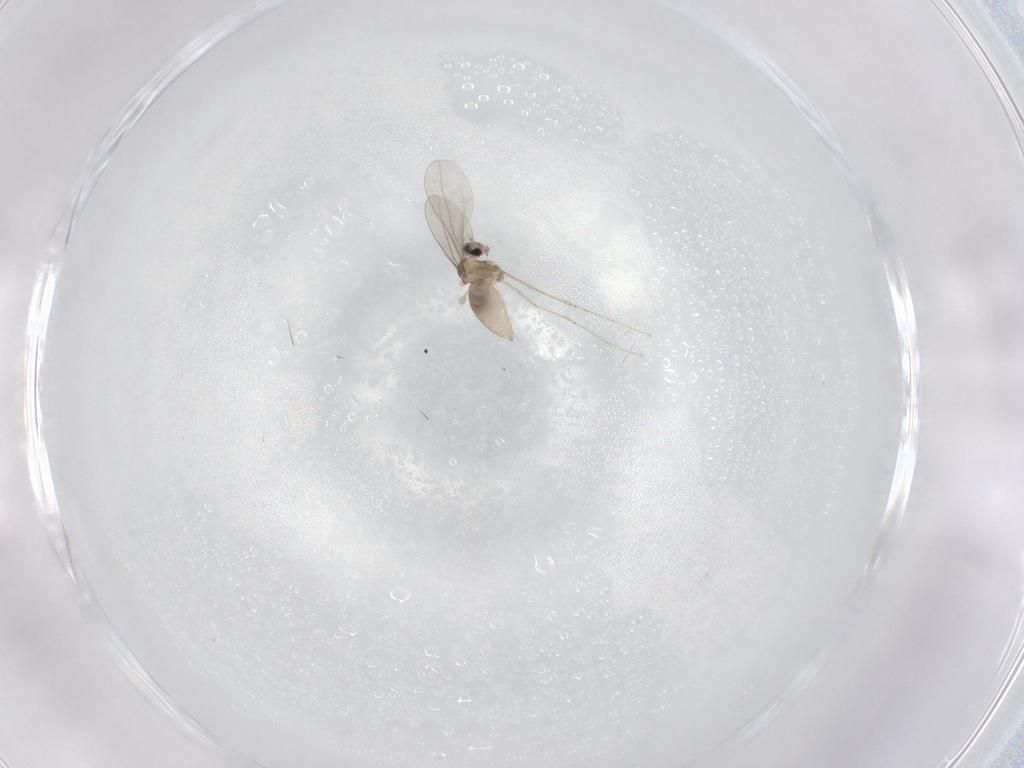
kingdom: Animalia
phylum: Arthropoda
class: Insecta
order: Diptera
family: Cecidomyiidae
